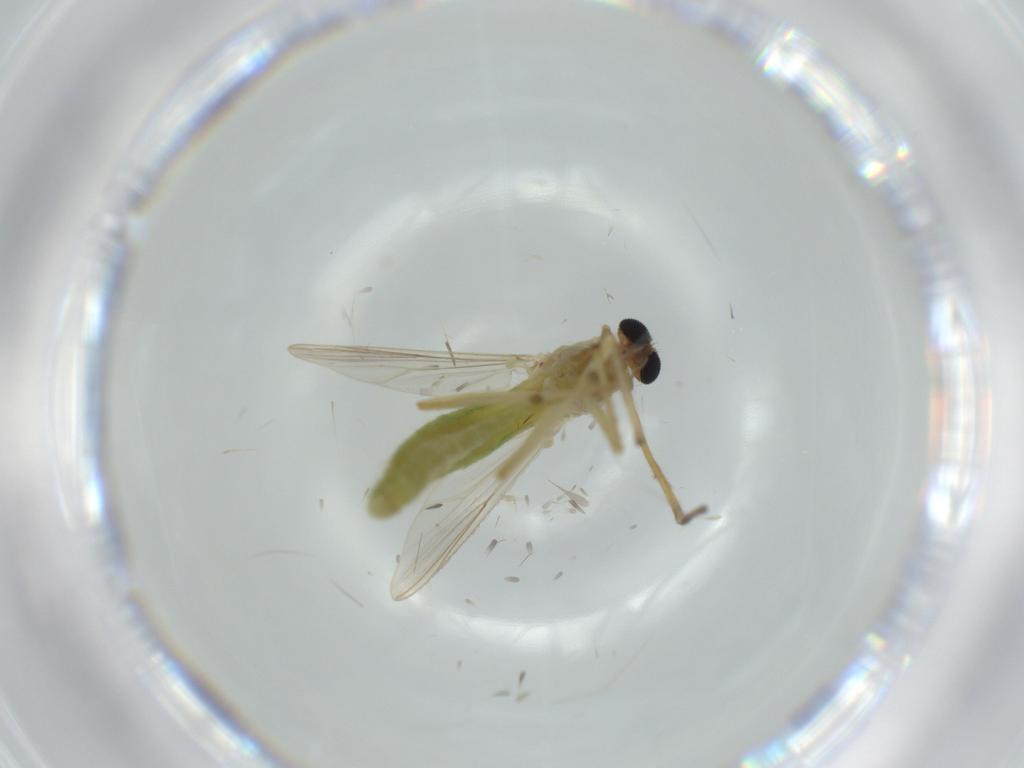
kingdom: Animalia
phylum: Arthropoda
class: Insecta
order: Diptera
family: Chironomidae
